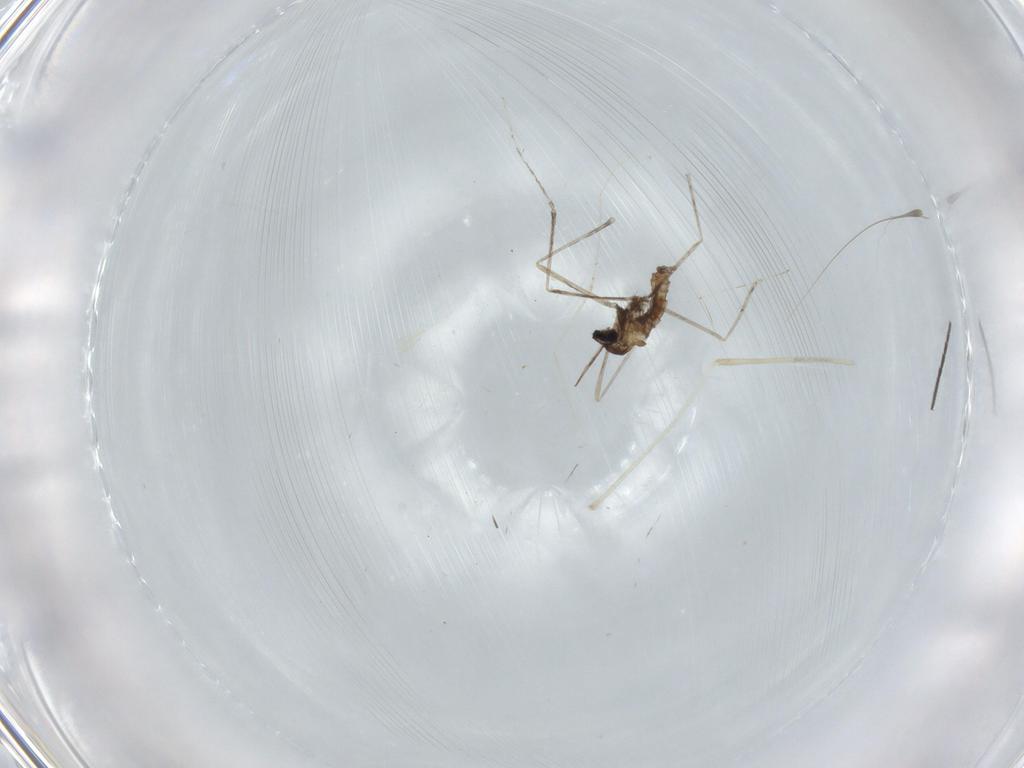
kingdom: Animalia
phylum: Arthropoda
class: Insecta
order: Diptera
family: Cecidomyiidae
